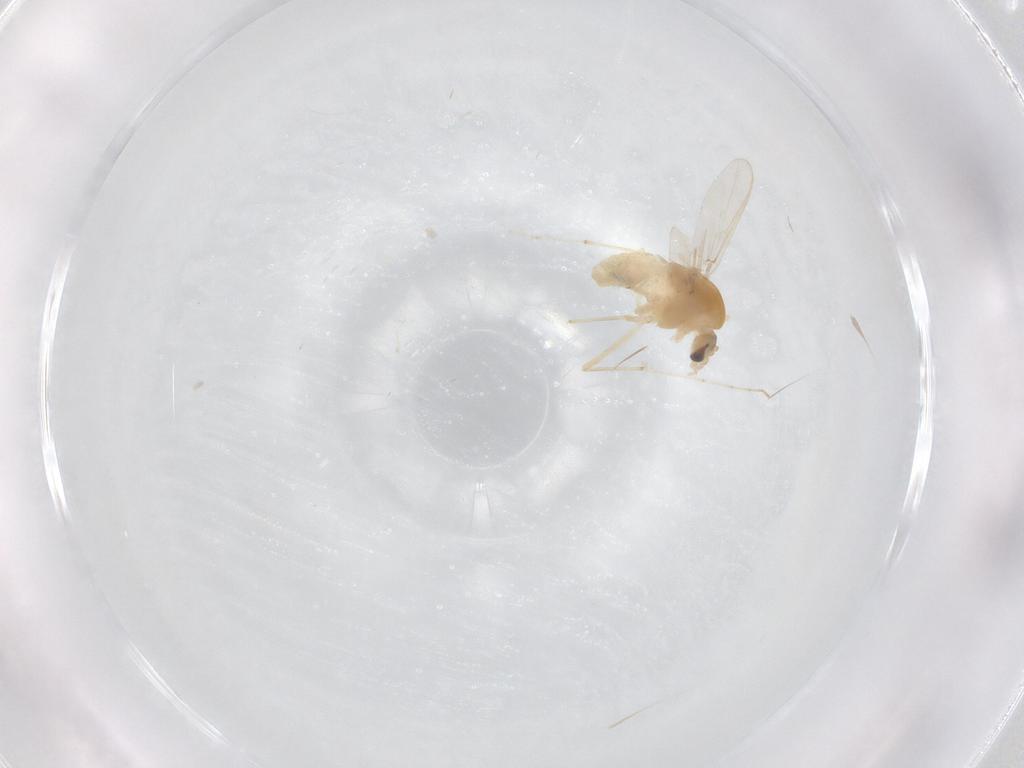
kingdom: Animalia
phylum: Arthropoda
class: Insecta
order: Diptera
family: Chironomidae
